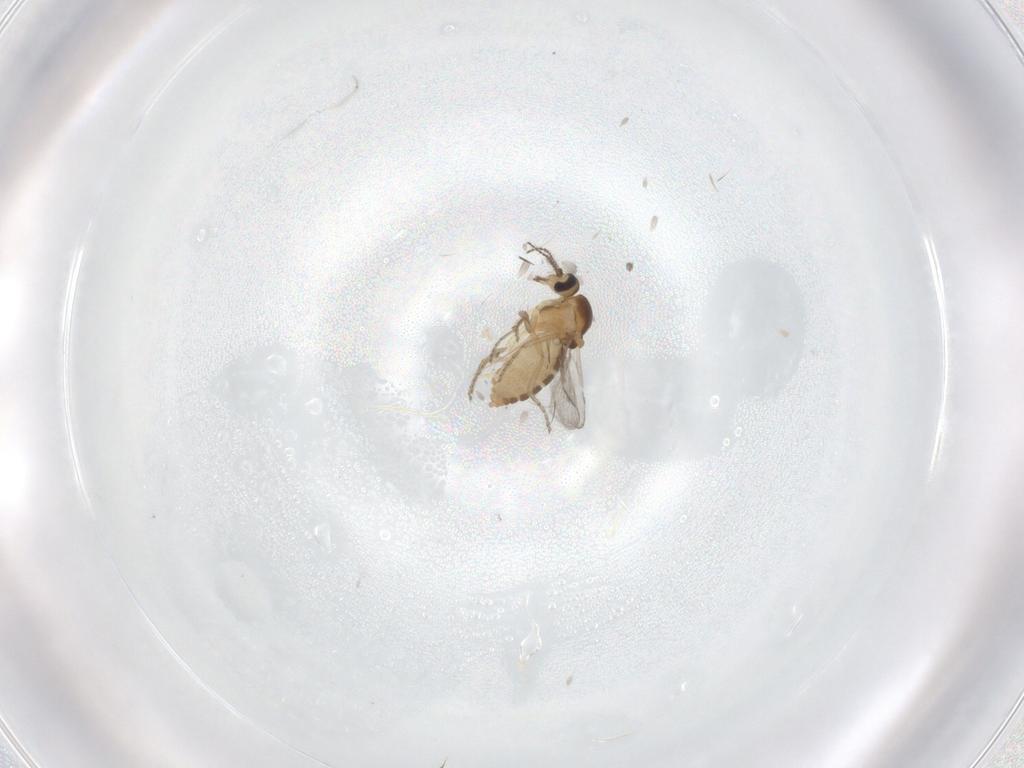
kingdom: Animalia
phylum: Arthropoda
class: Insecta
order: Diptera
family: Ceratopogonidae
